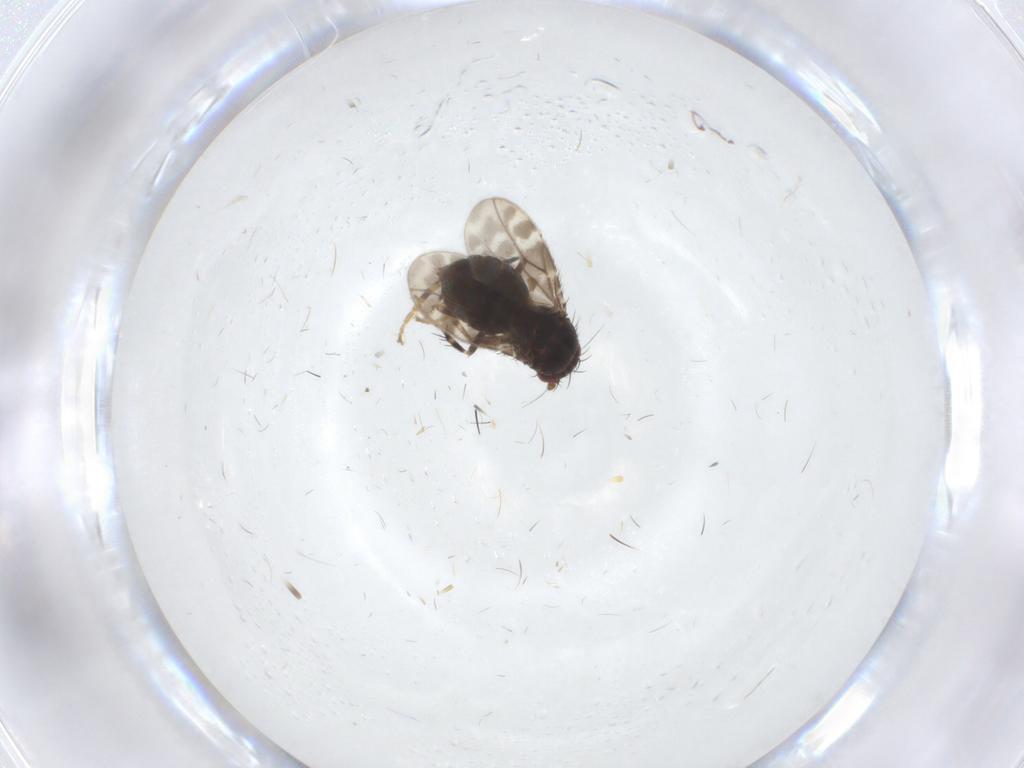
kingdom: Animalia
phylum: Arthropoda
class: Insecta
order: Diptera
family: Sphaeroceridae
